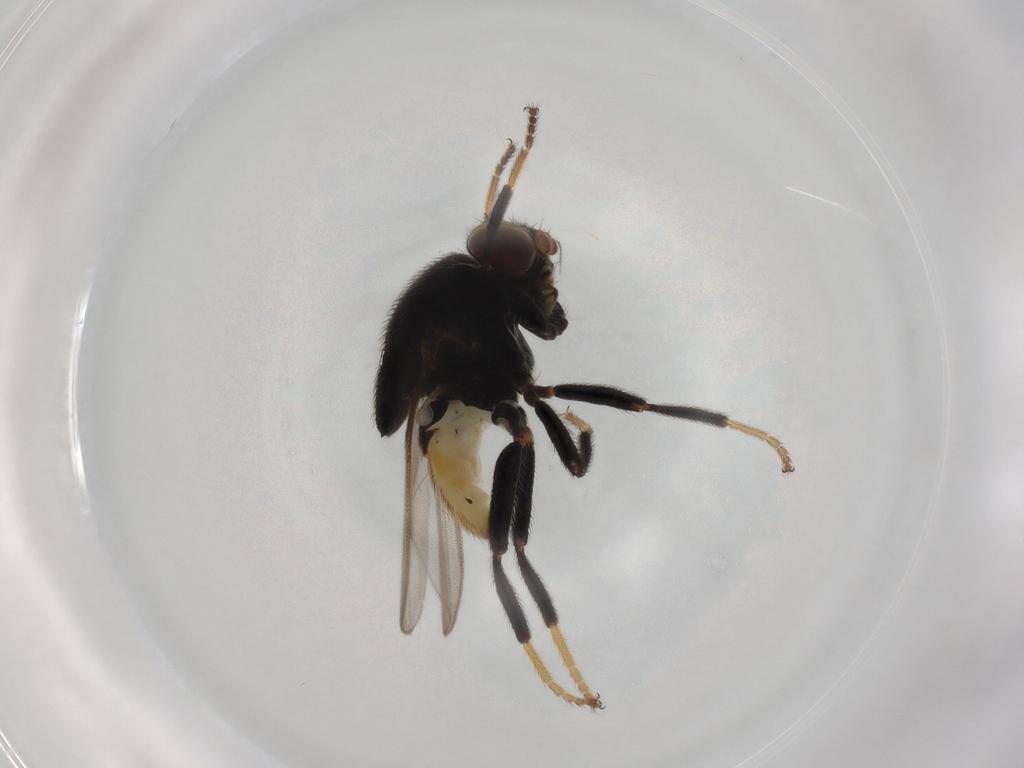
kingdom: Animalia
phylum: Arthropoda
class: Insecta
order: Diptera
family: Chloropidae
